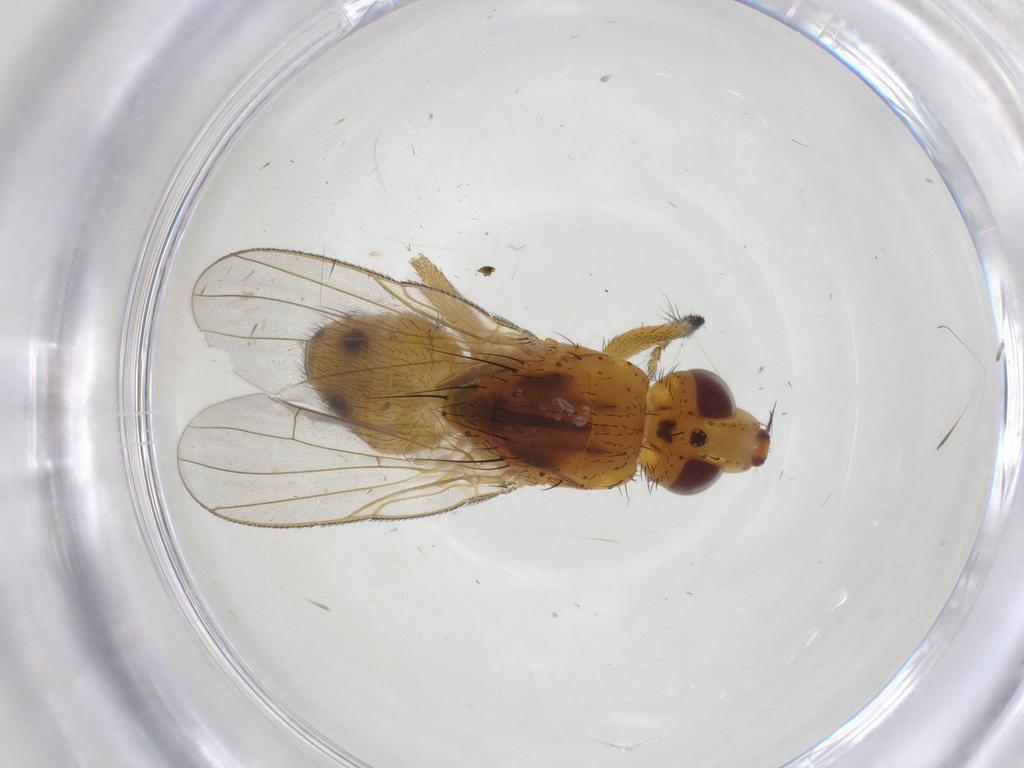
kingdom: Animalia
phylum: Arthropoda
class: Insecta
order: Diptera
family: Muscidae
